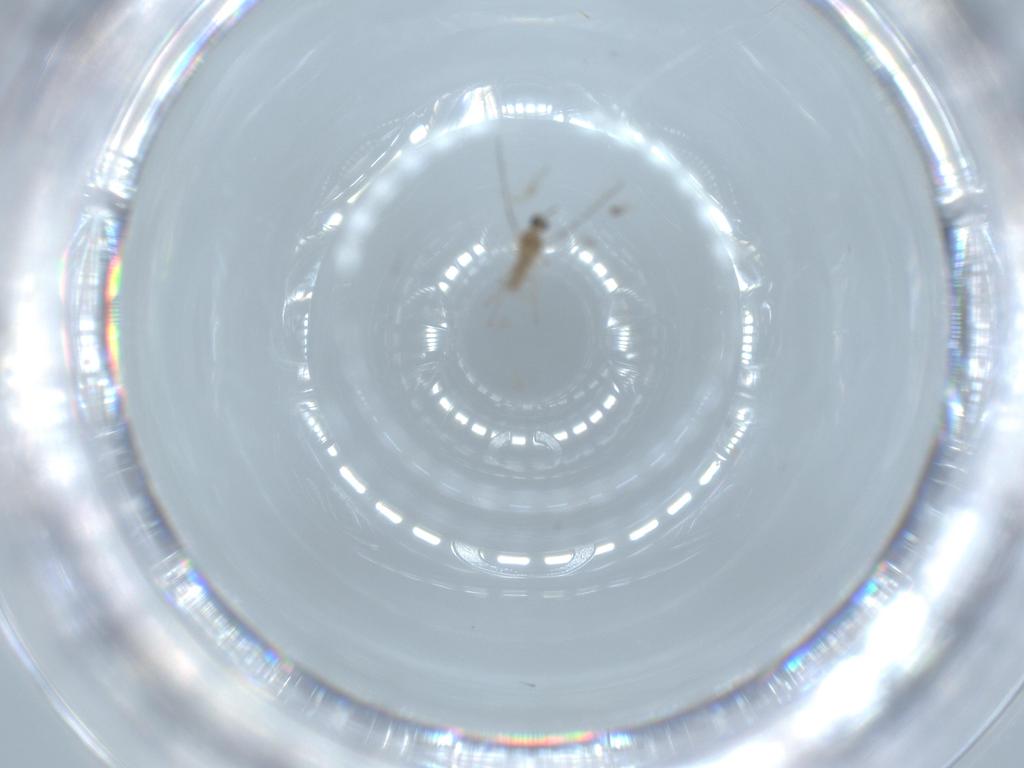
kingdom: Animalia
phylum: Arthropoda
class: Insecta
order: Diptera
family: Cecidomyiidae
